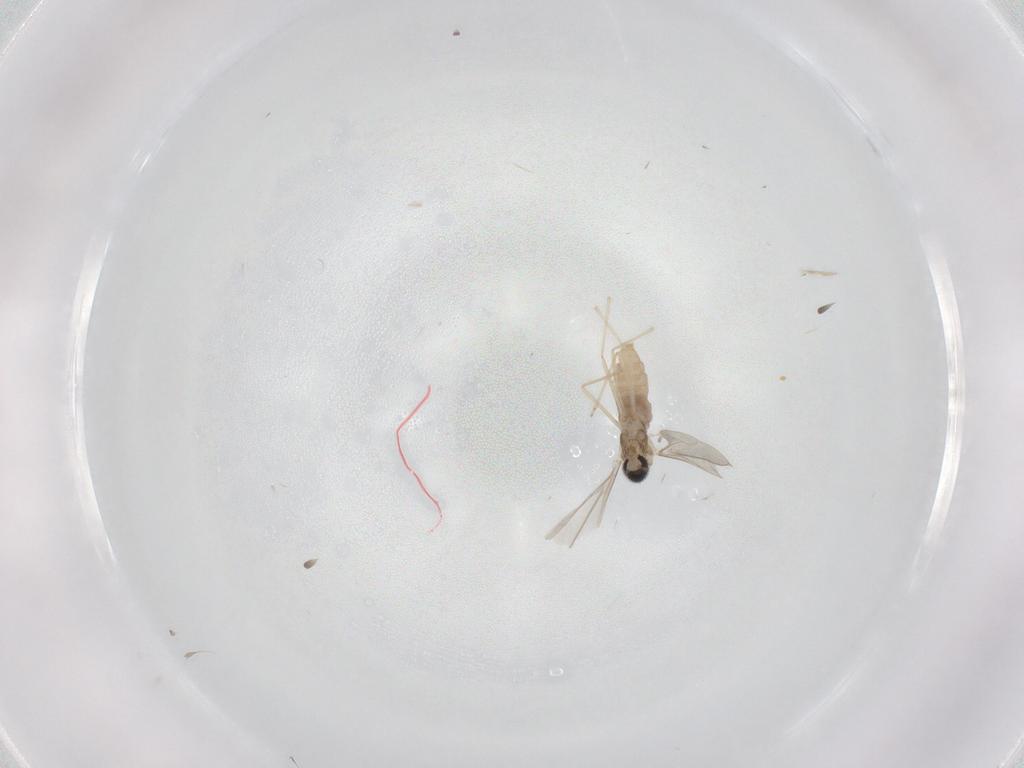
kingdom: Animalia
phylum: Arthropoda
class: Insecta
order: Diptera
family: Cecidomyiidae
